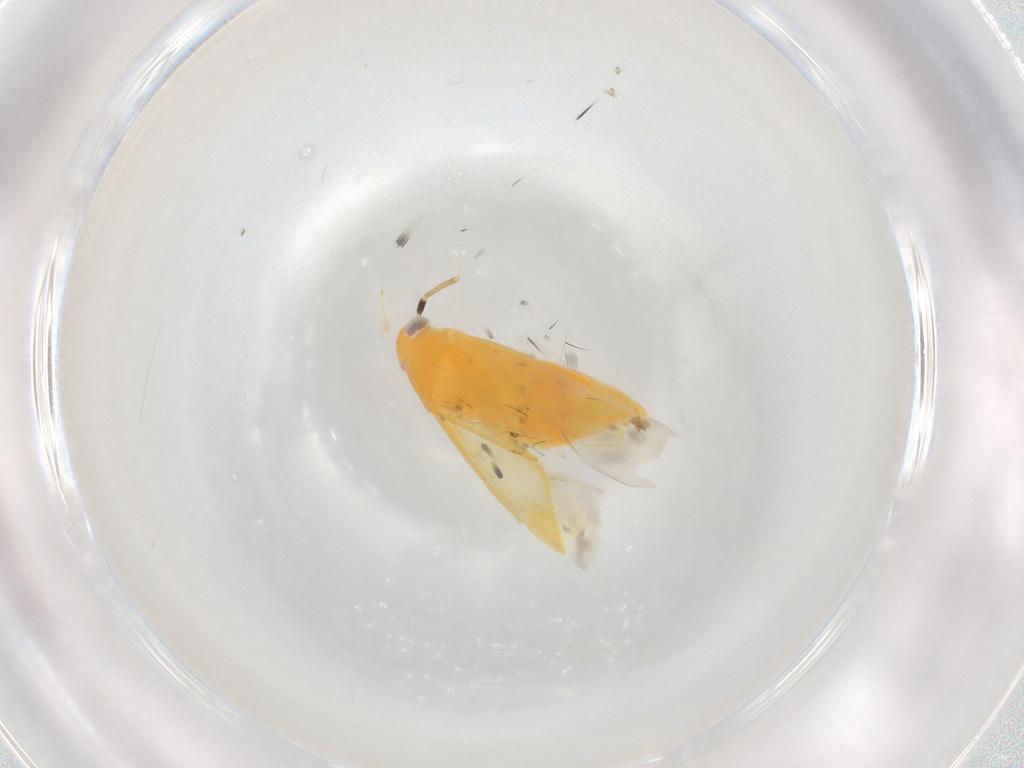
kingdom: Animalia
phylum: Arthropoda
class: Insecta
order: Hemiptera
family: Miridae
